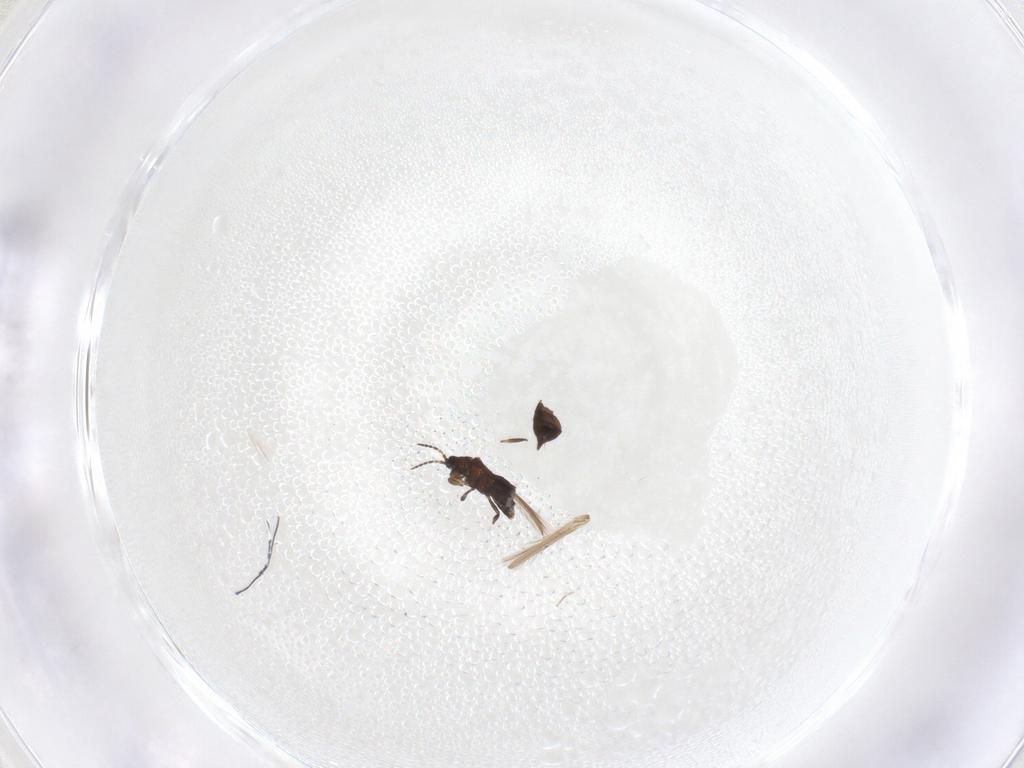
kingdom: Animalia
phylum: Arthropoda
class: Insecta
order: Thysanoptera
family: Heterothripidae
